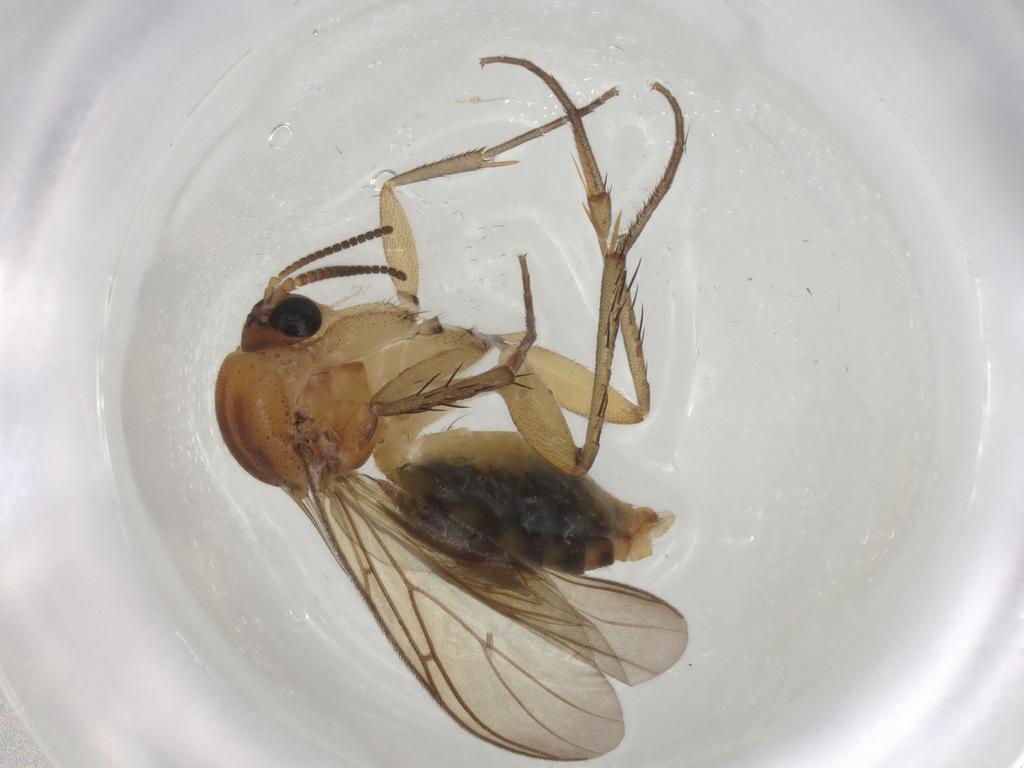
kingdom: Animalia
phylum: Arthropoda
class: Insecta
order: Diptera
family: Mycetophilidae
